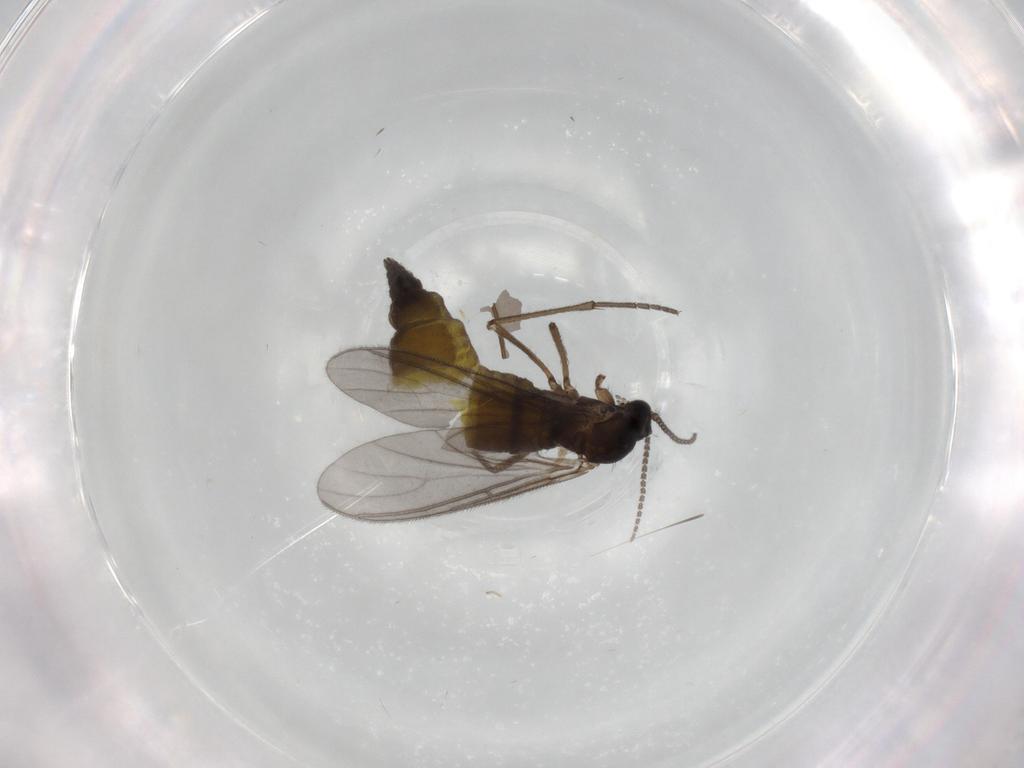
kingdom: Animalia
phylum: Arthropoda
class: Insecta
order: Diptera
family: Sciaridae
